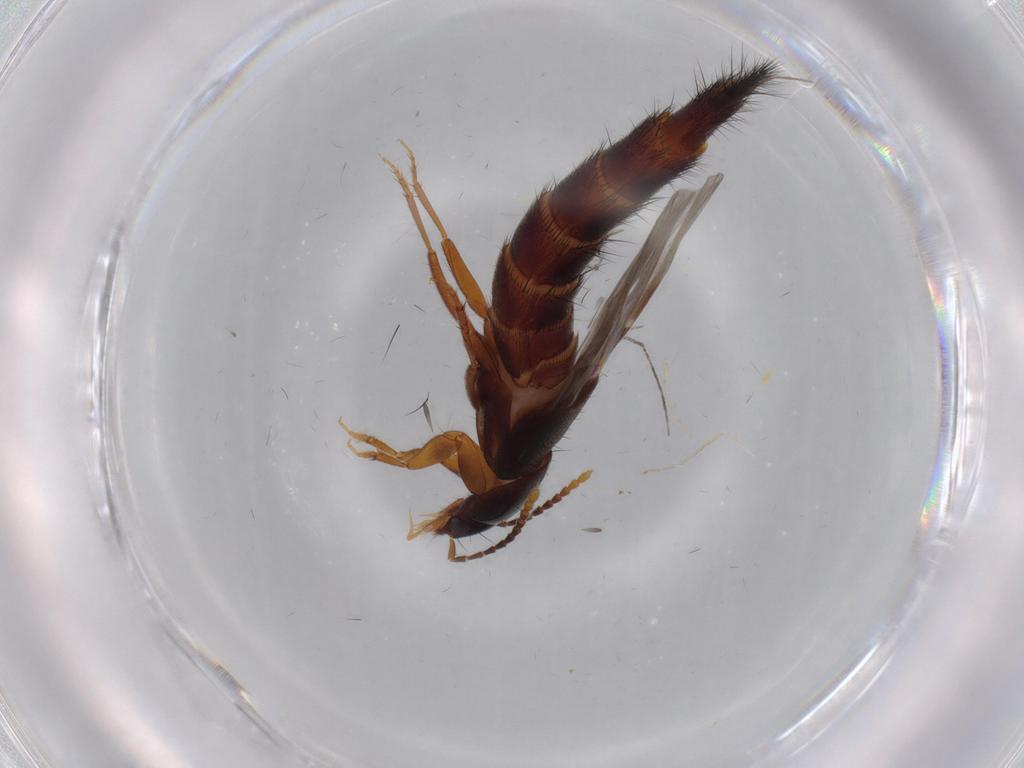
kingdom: Animalia
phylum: Arthropoda
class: Insecta
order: Coleoptera
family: Staphylinidae
